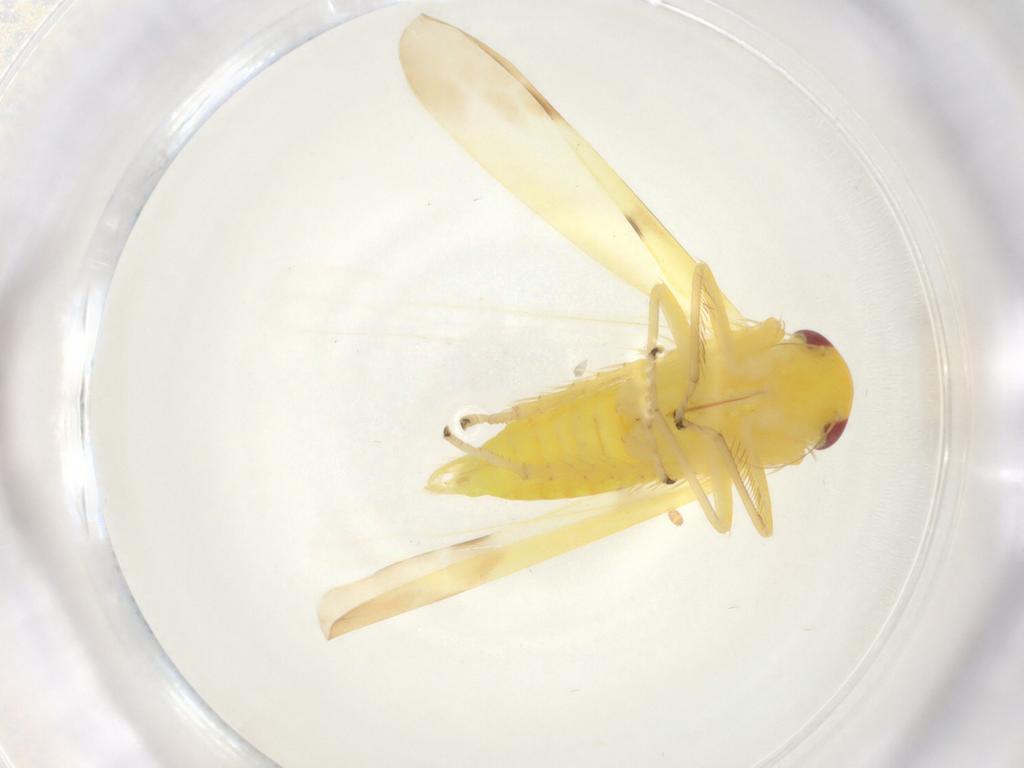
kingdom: Animalia
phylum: Arthropoda
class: Insecta
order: Hemiptera
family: Cicadellidae
